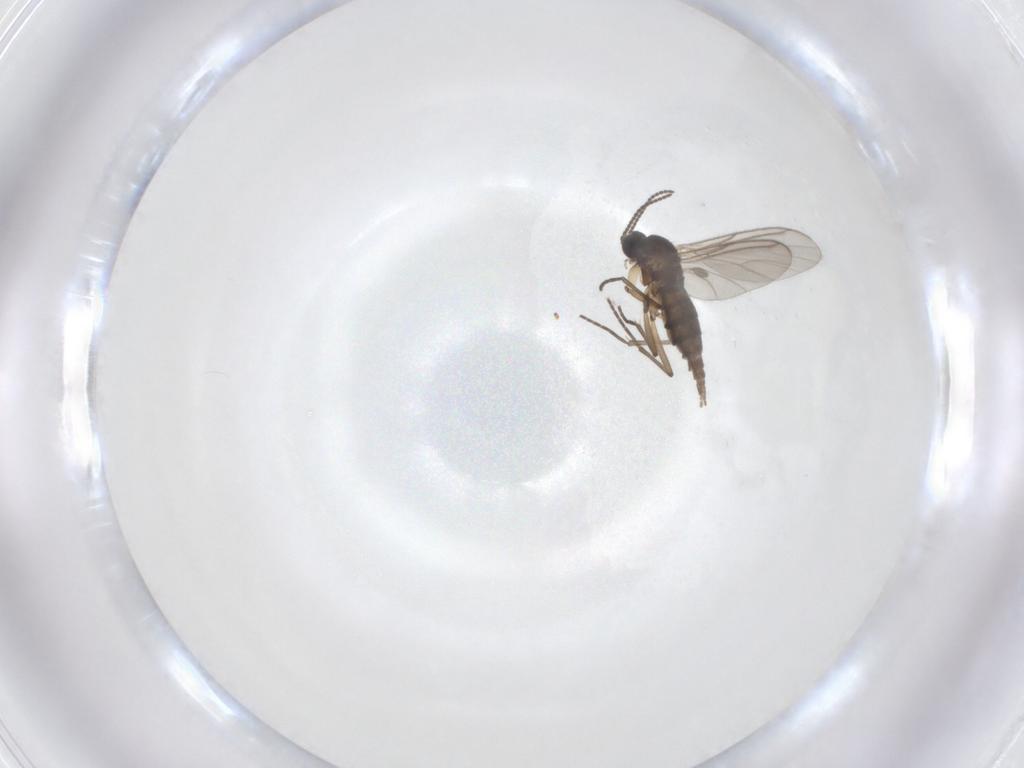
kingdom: Animalia
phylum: Arthropoda
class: Insecta
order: Diptera
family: Sciaridae
